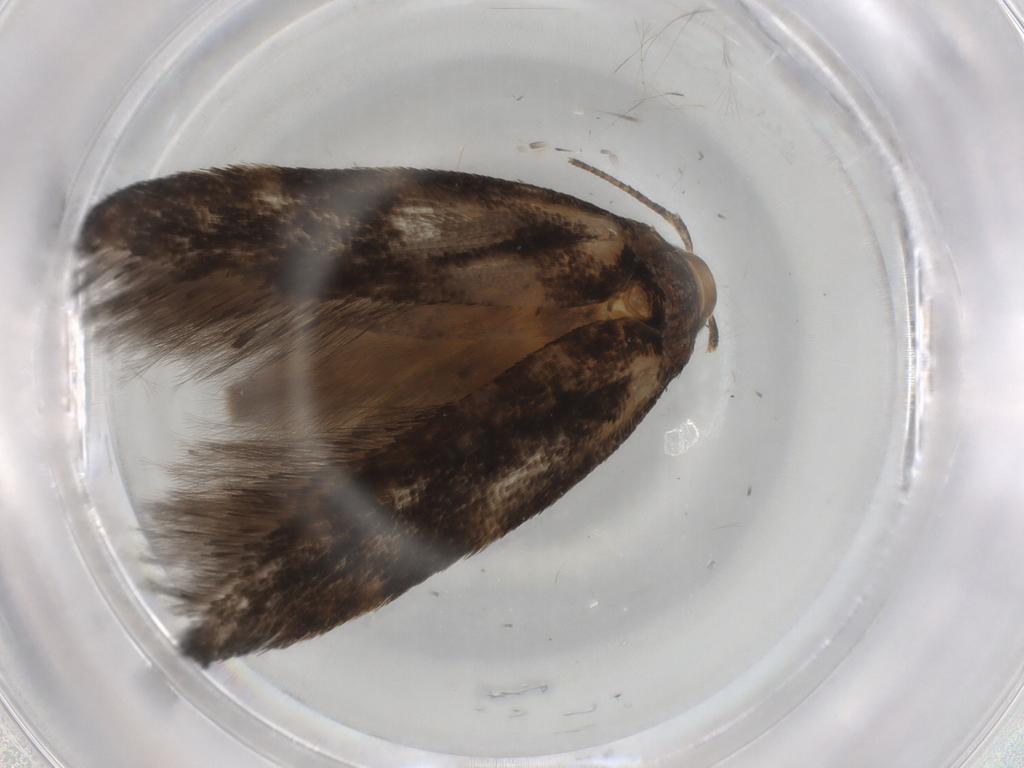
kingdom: Animalia
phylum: Arthropoda
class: Insecta
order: Lepidoptera
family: Gelechiidae
